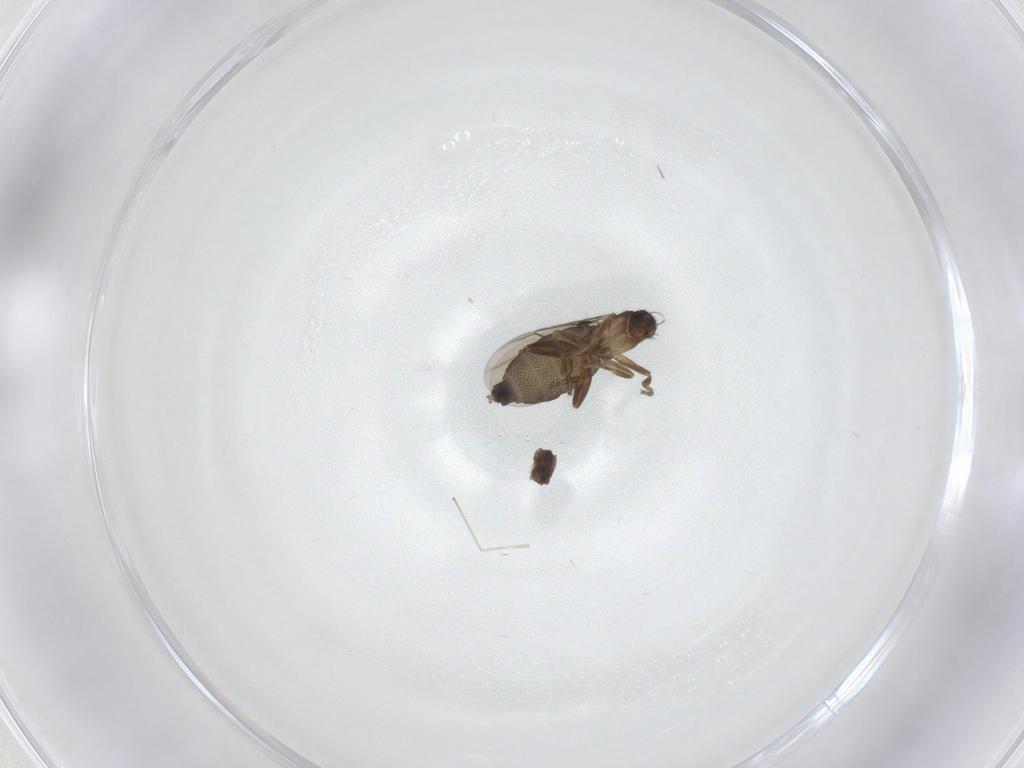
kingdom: Animalia
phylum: Arthropoda
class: Insecta
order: Diptera
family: Phoridae
